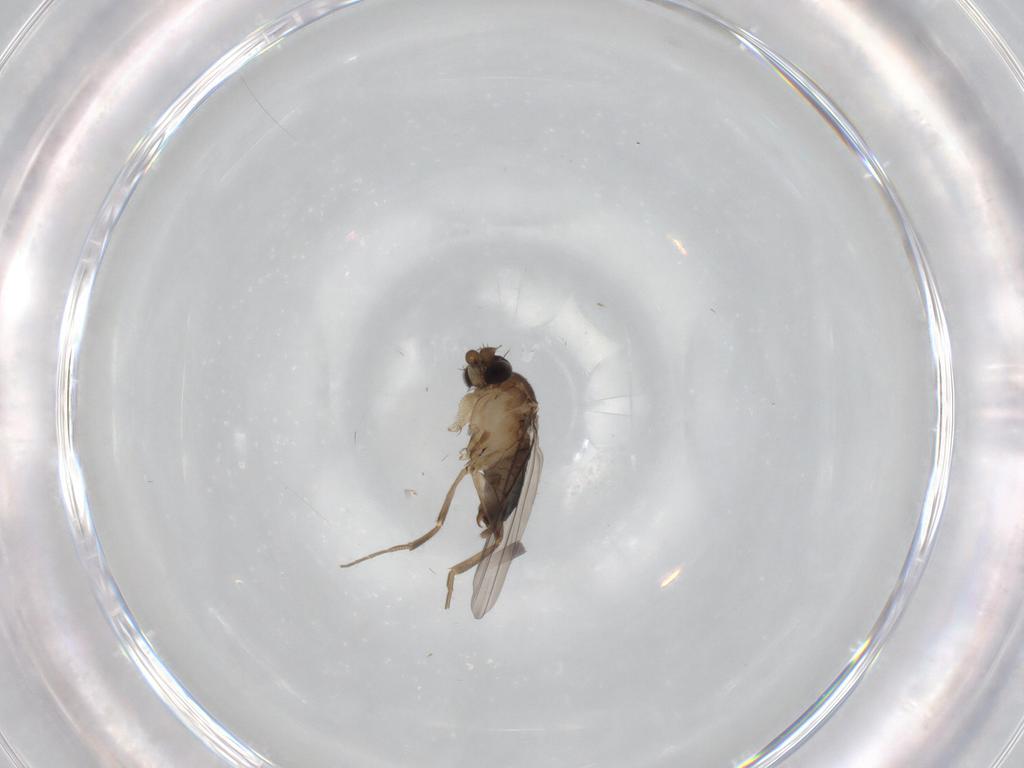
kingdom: Animalia
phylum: Arthropoda
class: Insecta
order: Diptera
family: Phoridae
